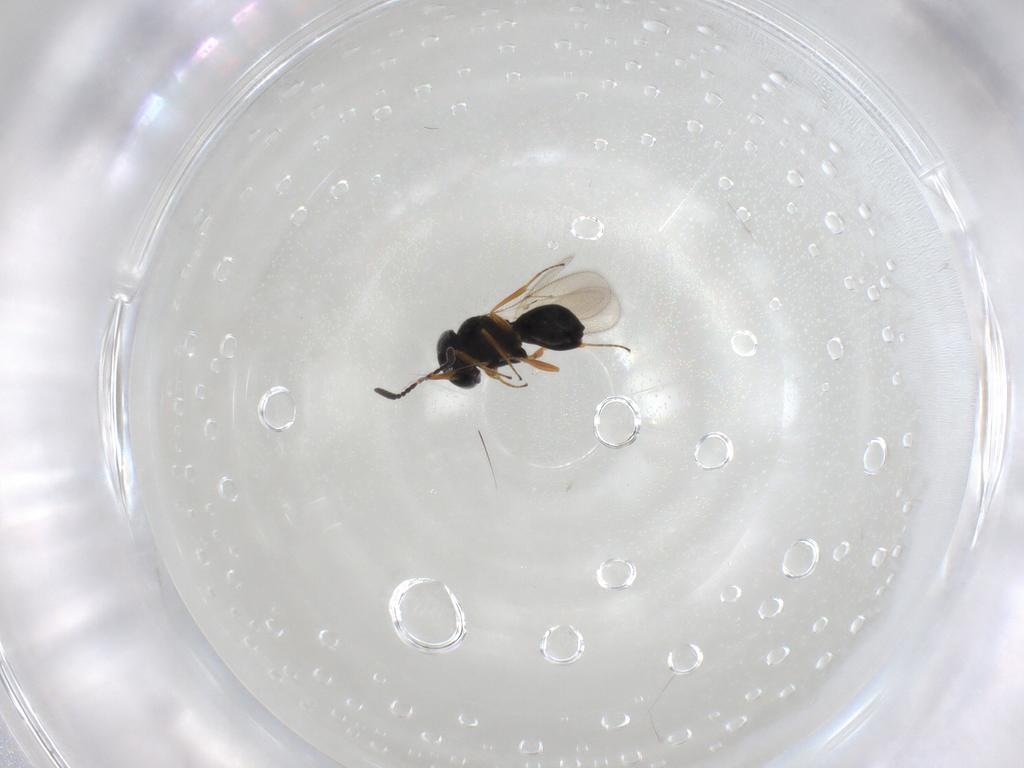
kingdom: Animalia
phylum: Arthropoda
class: Insecta
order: Hymenoptera
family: Scelionidae
